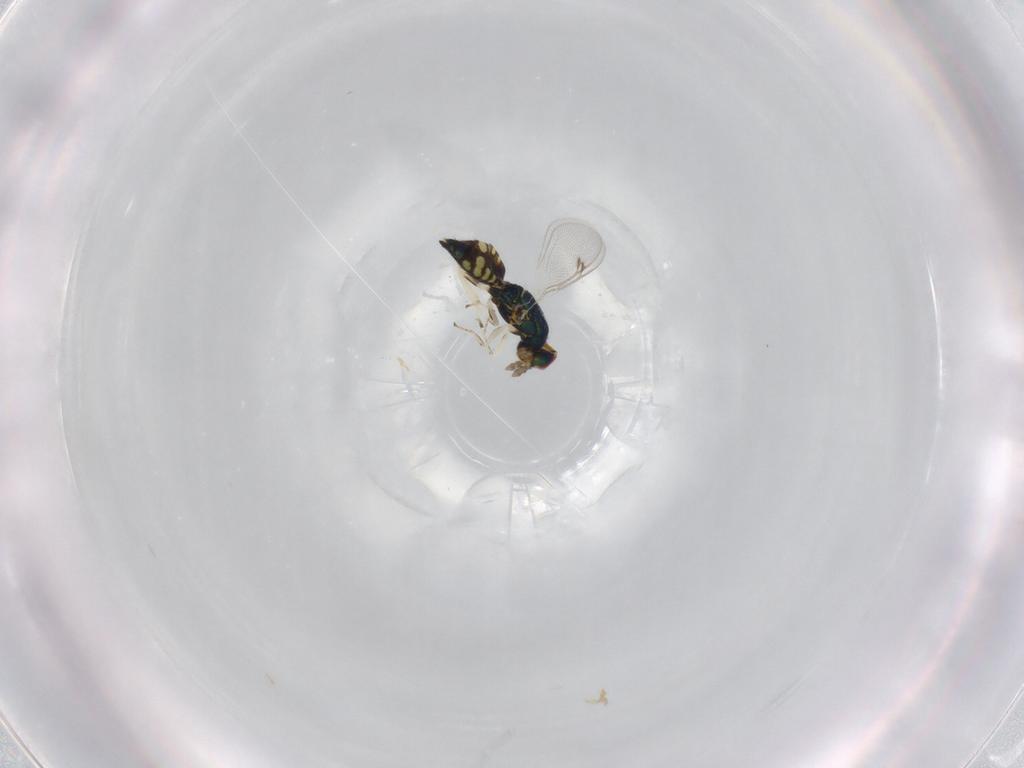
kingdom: Animalia
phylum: Arthropoda
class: Insecta
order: Hymenoptera
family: Eulophidae
